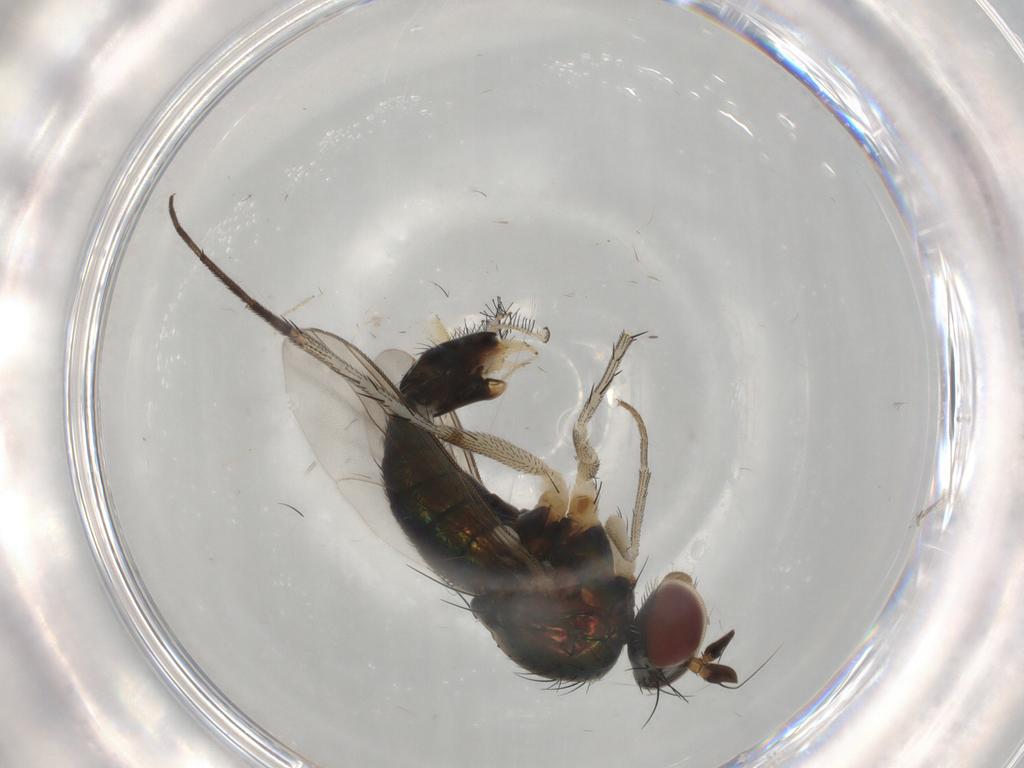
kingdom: Animalia
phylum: Arthropoda
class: Insecta
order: Diptera
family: Dolichopodidae
